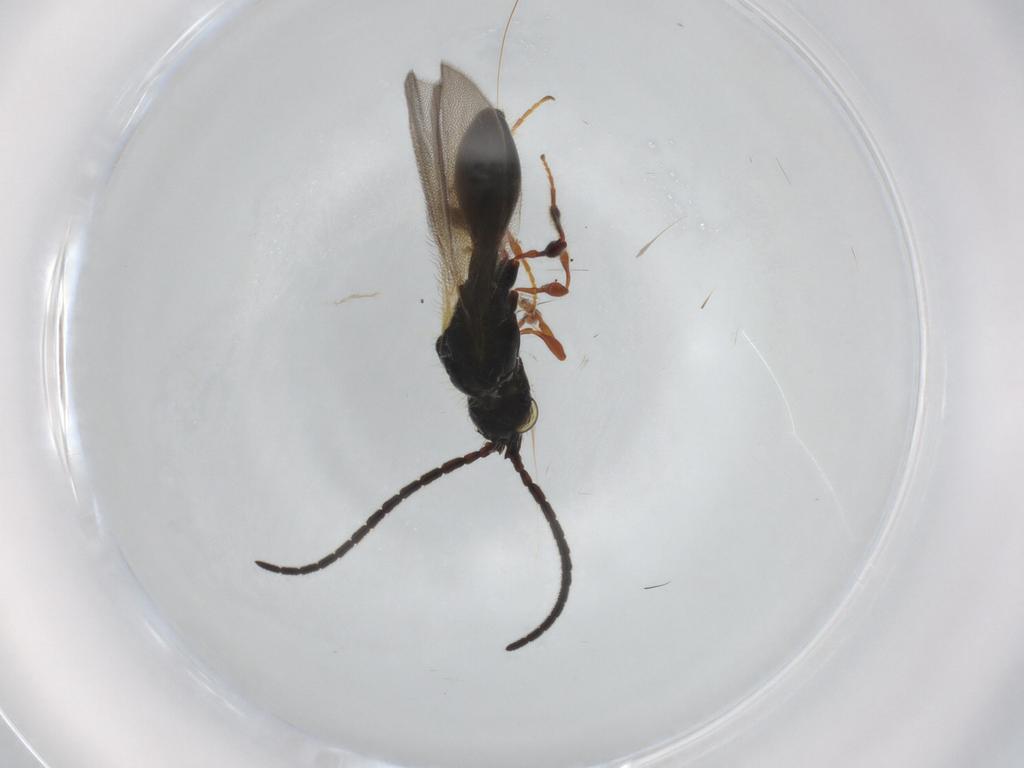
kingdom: Animalia
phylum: Arthropoda
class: Insecta
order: Hymenoptera
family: Diapriidae
